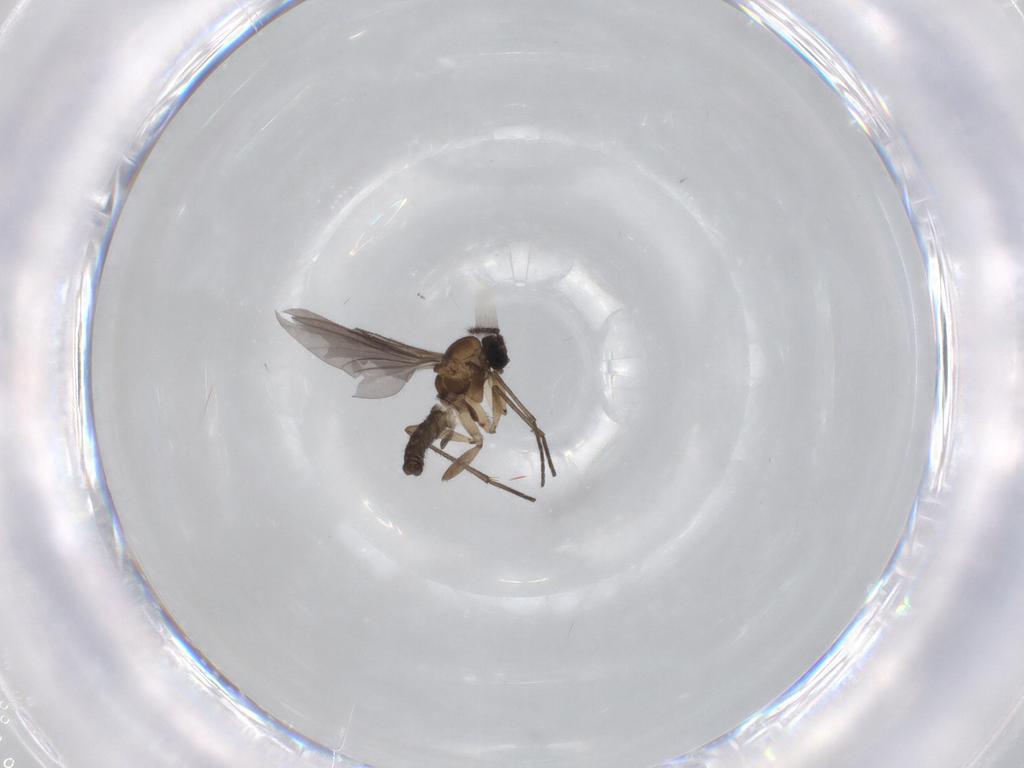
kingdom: Animalia
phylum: Arthropoda
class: Insecta
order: Diptera
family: Sciaridae
